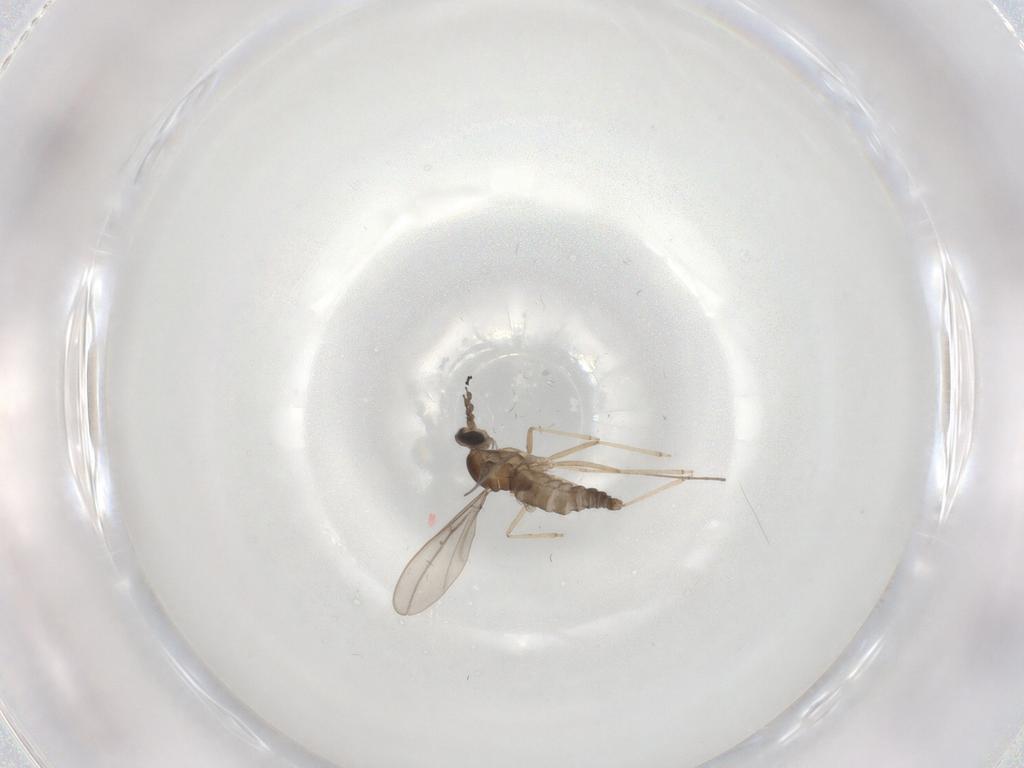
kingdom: Animalia
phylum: Arthropoda
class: Insecta
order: Diptera
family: Cecidomyiidae
